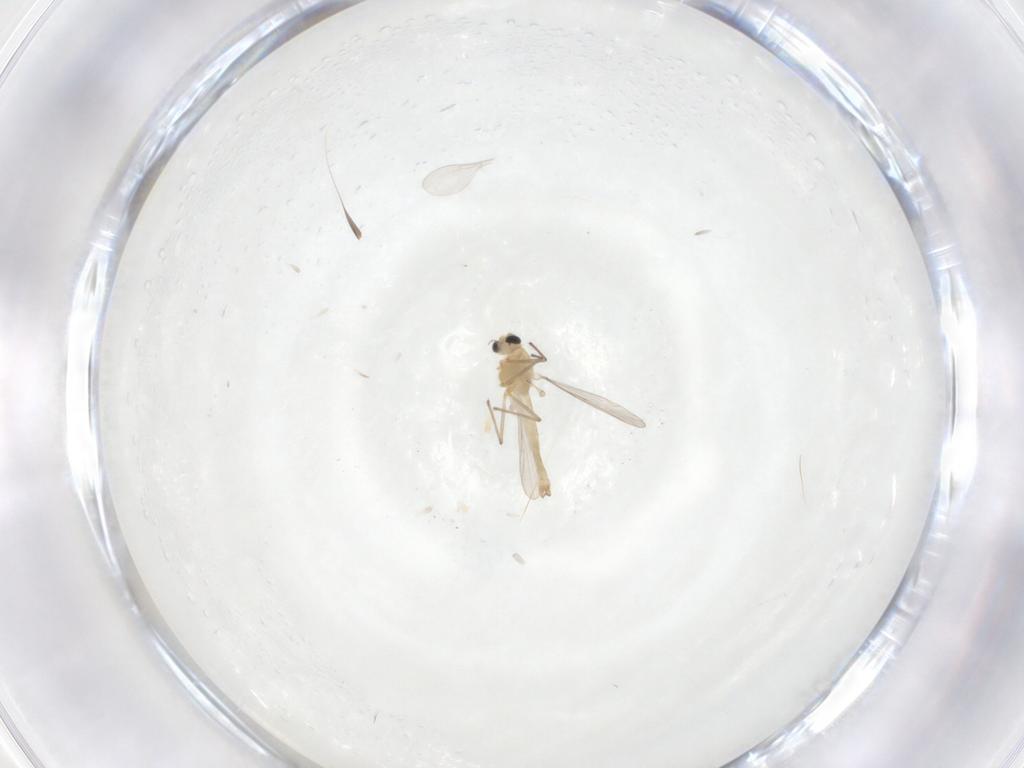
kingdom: Animalia
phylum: Arthropoda
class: Insecta
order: Diptera
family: Cecidomyiidae
